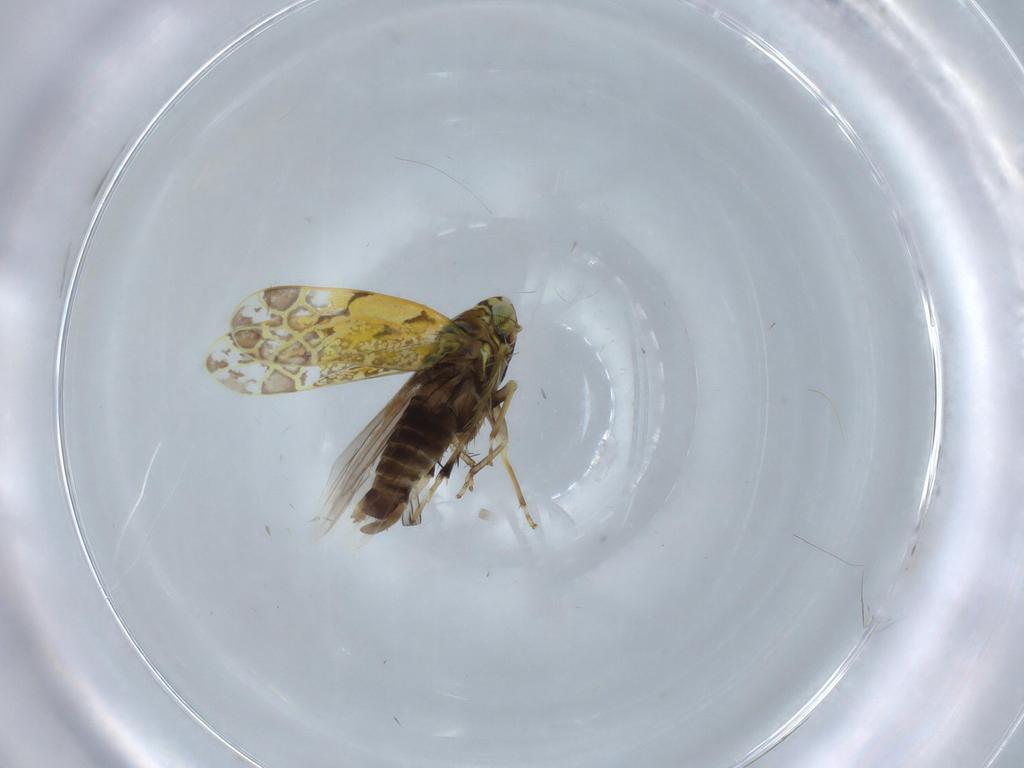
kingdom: Animalia
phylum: Arthropoda
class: Insecta
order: Hemiptera
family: Cicadellidae
